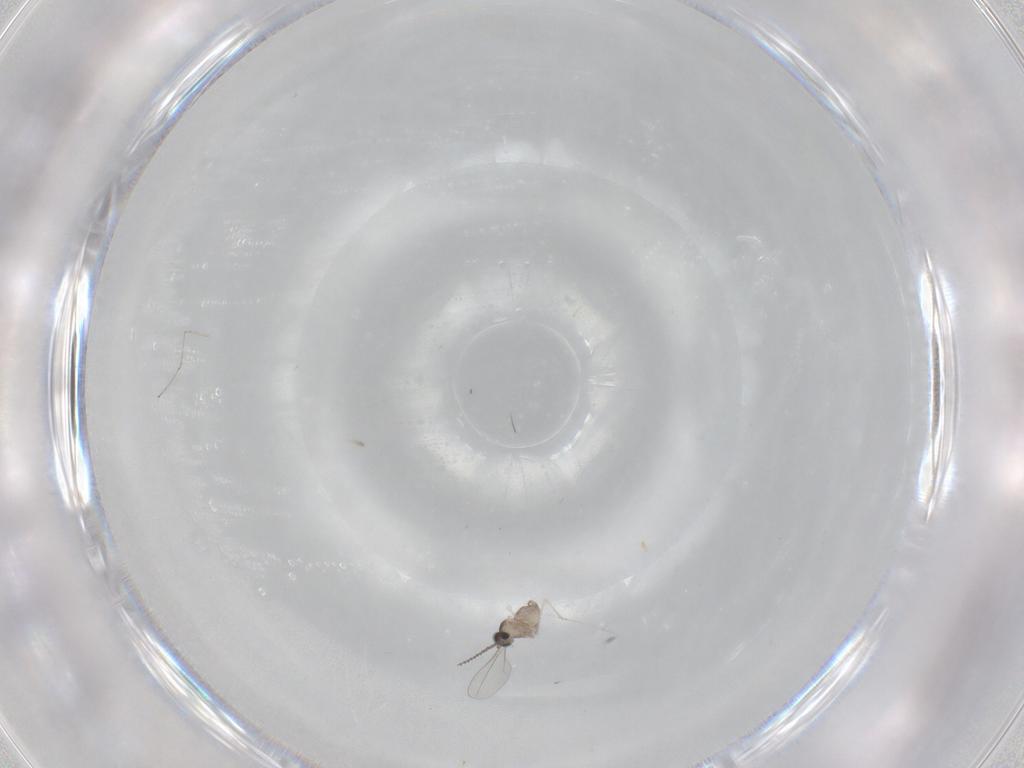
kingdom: Animalia
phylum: Arthropoda
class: Insecta
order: Diptera
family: Cecidomyiidae
